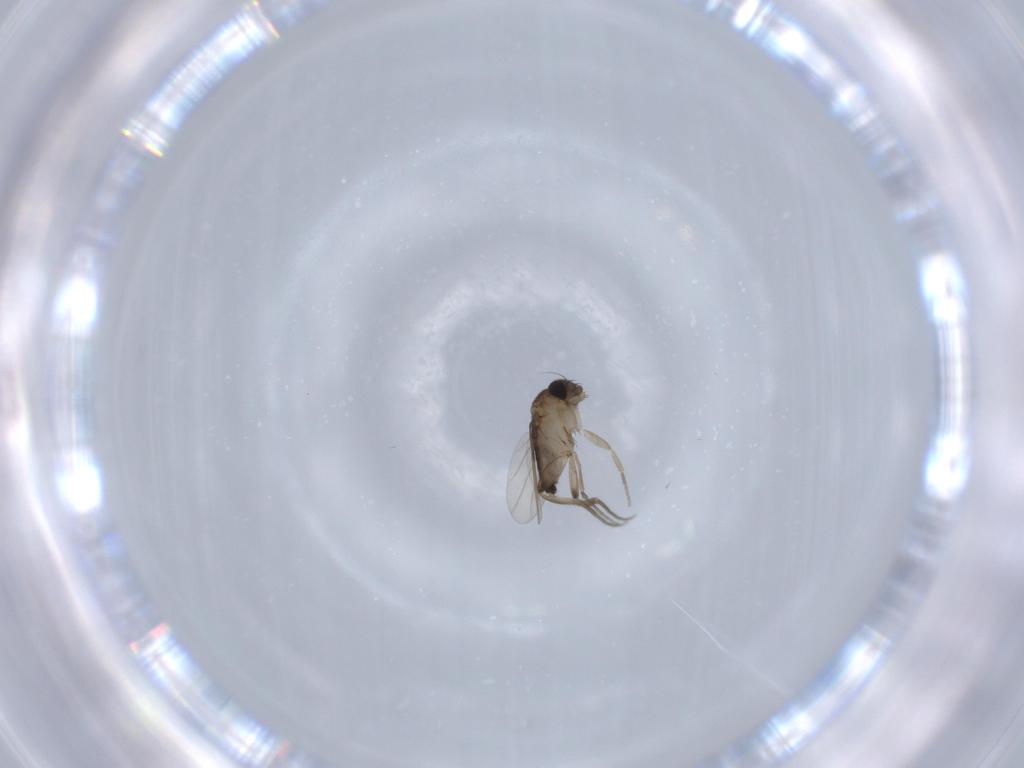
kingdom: Animalia
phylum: Arthropoda
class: Insecta
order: Diptera
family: Phoridae
